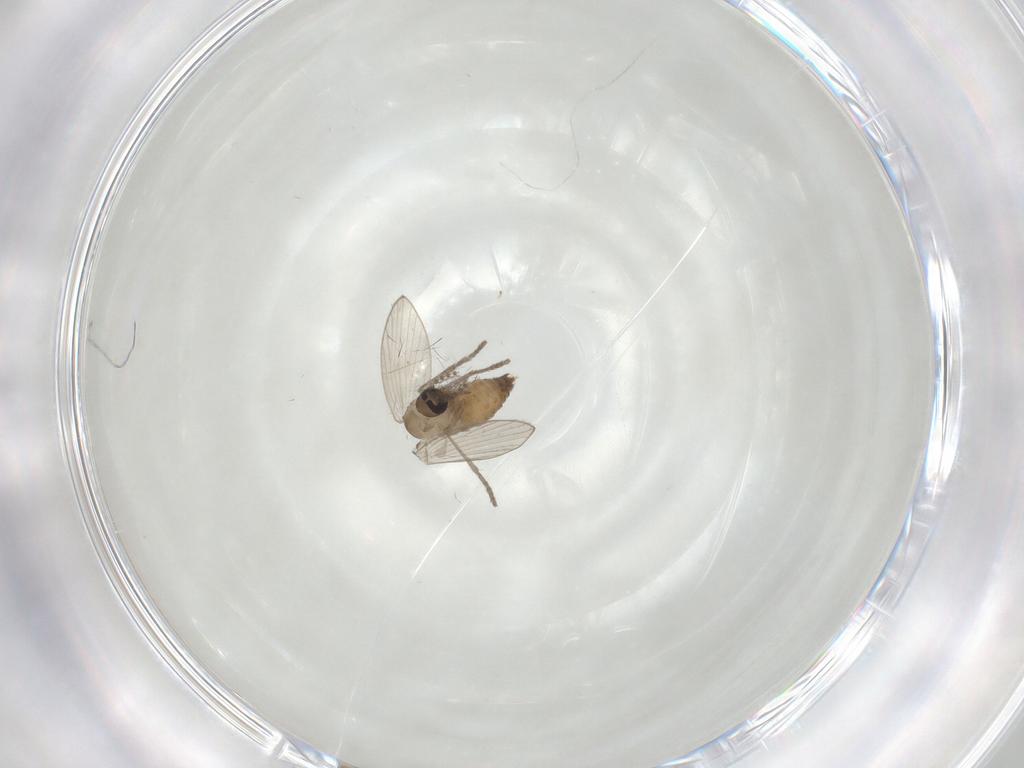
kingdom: Animalia
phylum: Arthropoda
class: Insecta
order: Diptera
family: Psychodidae
